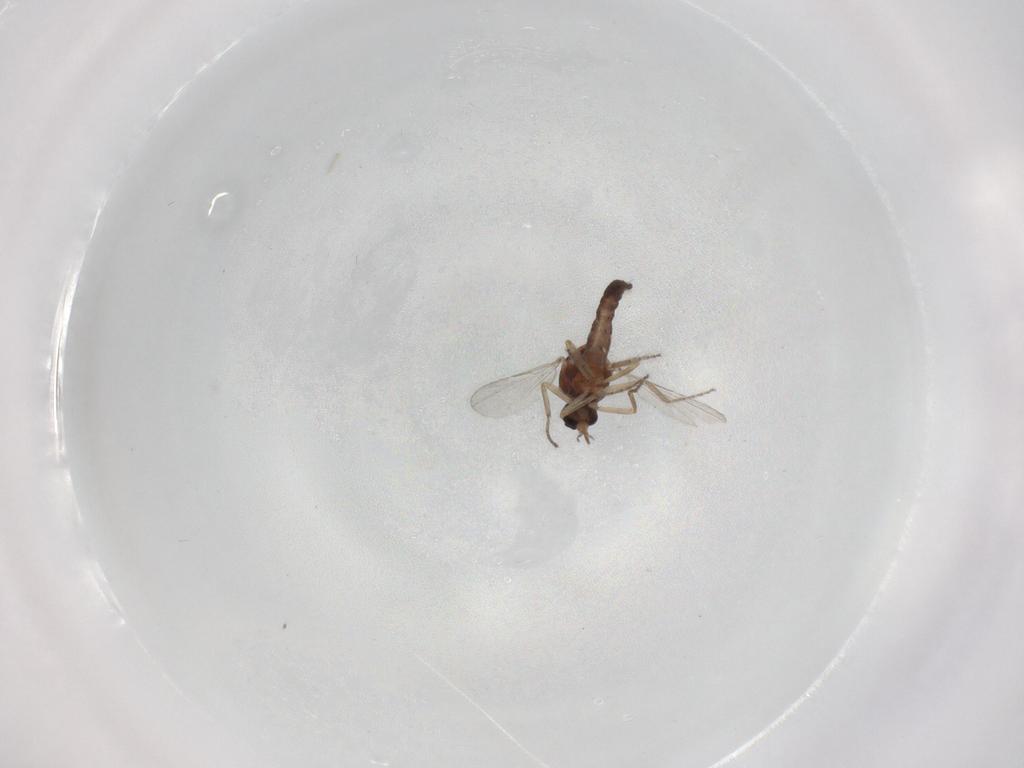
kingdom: Animalia
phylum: Arthropoda
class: Insecta
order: Diptera
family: Ceratopogonidae
